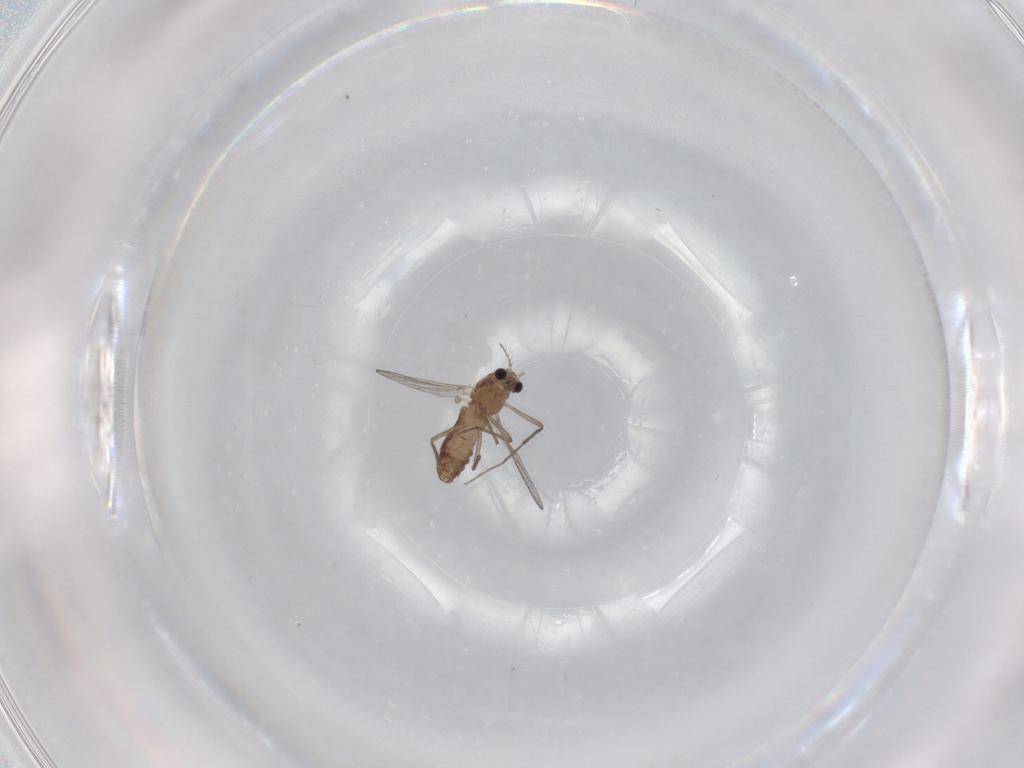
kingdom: Animalia
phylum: Arthropoda
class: Insecta
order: Diptera
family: Chironomidae
